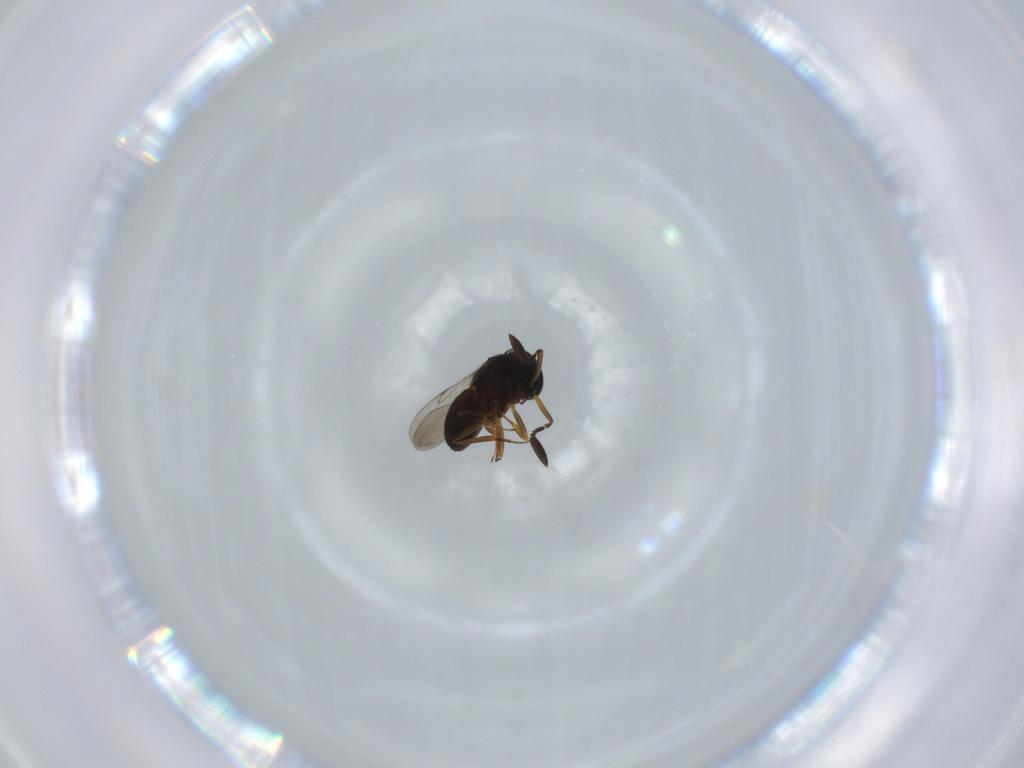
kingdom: Animalia
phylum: Arthropoda
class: Insecta
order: Hymenoptera
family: Scelionidae
